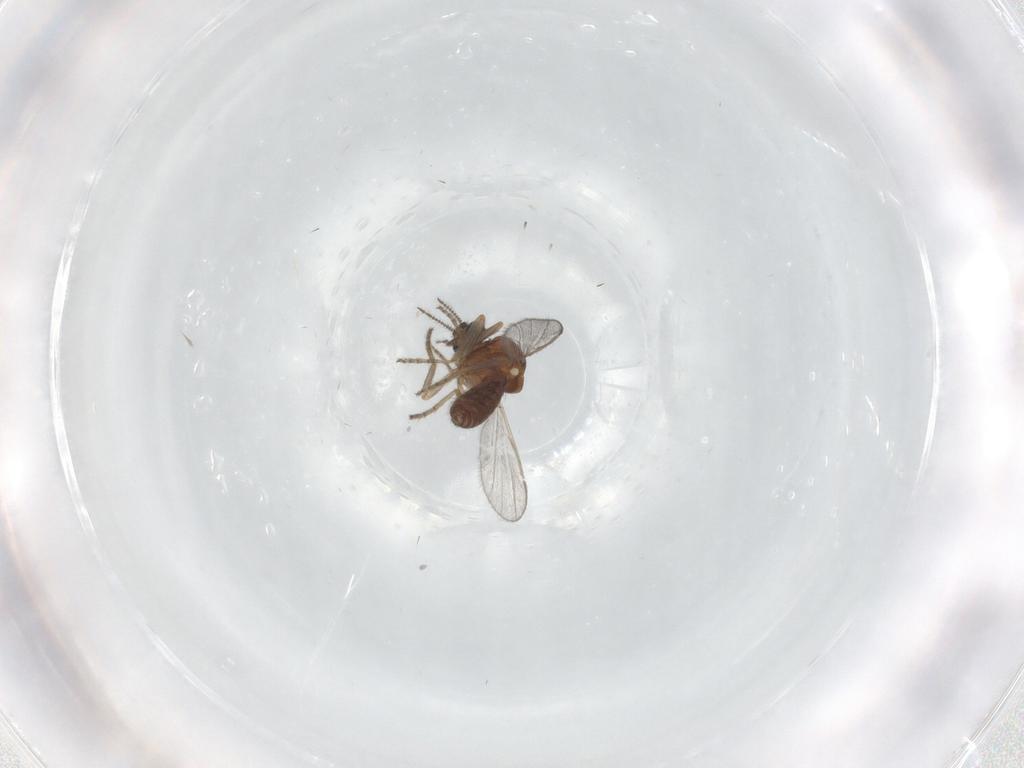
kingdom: Animalia
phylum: Arthropoda
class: Insecta
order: Diptera
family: Ceratopogonidae
